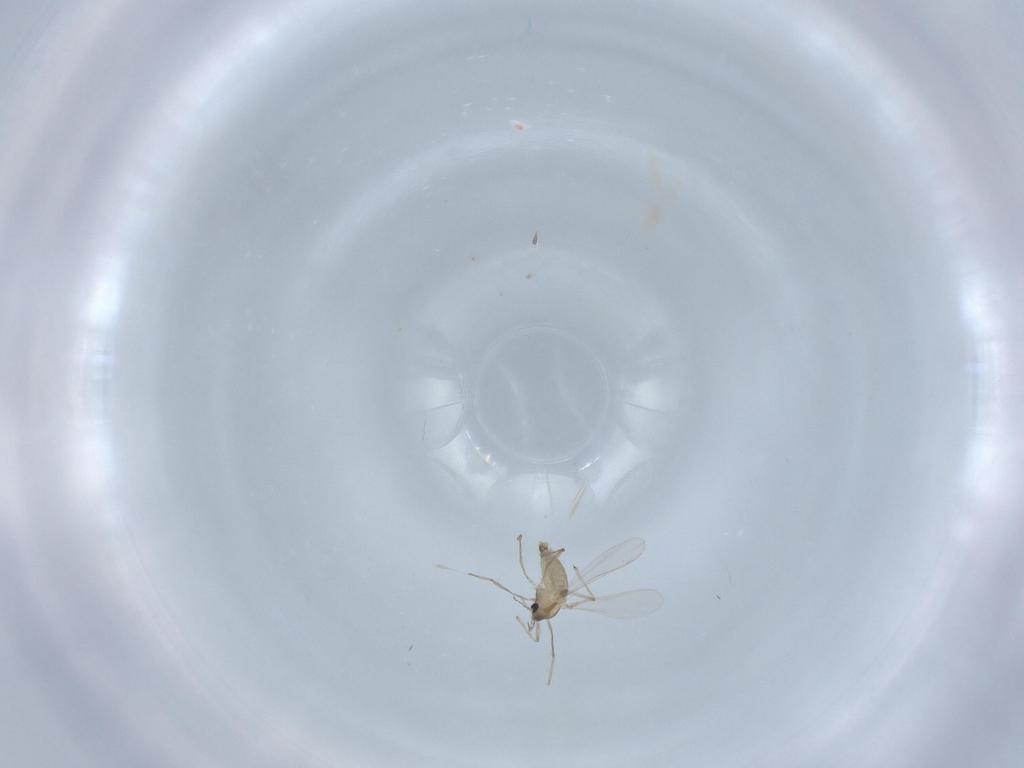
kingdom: Animalia
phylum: Arthropoda
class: Insecta
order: Diptera
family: Chironomidae
